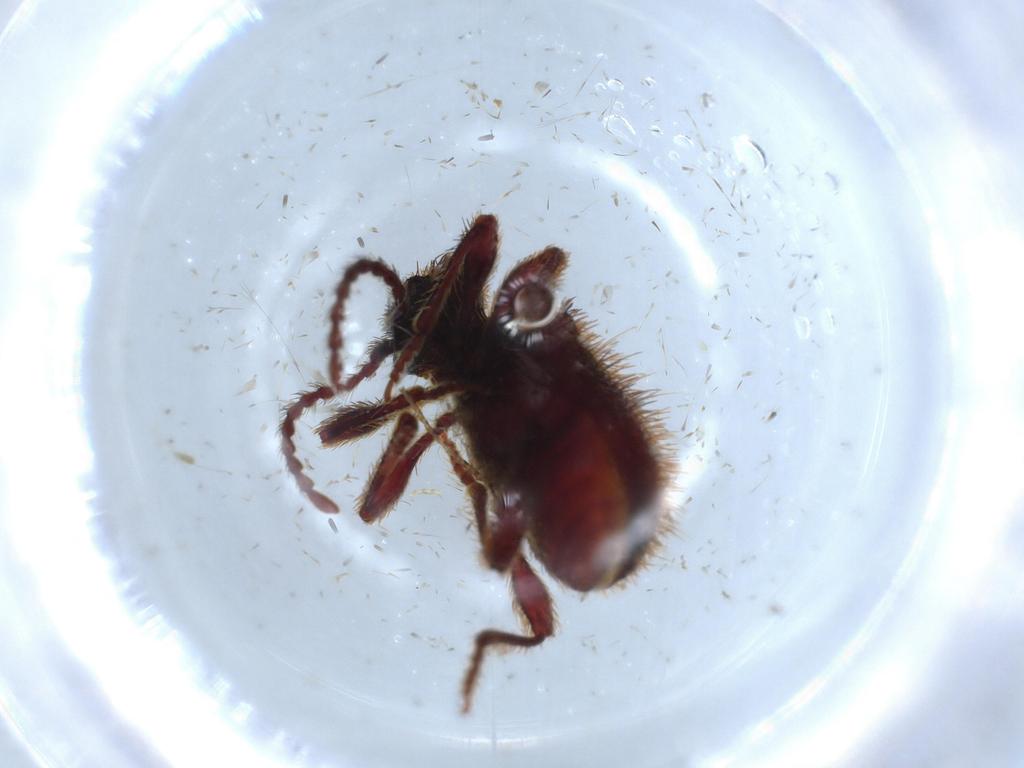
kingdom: Animalia
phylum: Arthropoda
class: Insecta
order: Coleoptera
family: Ptinidae
